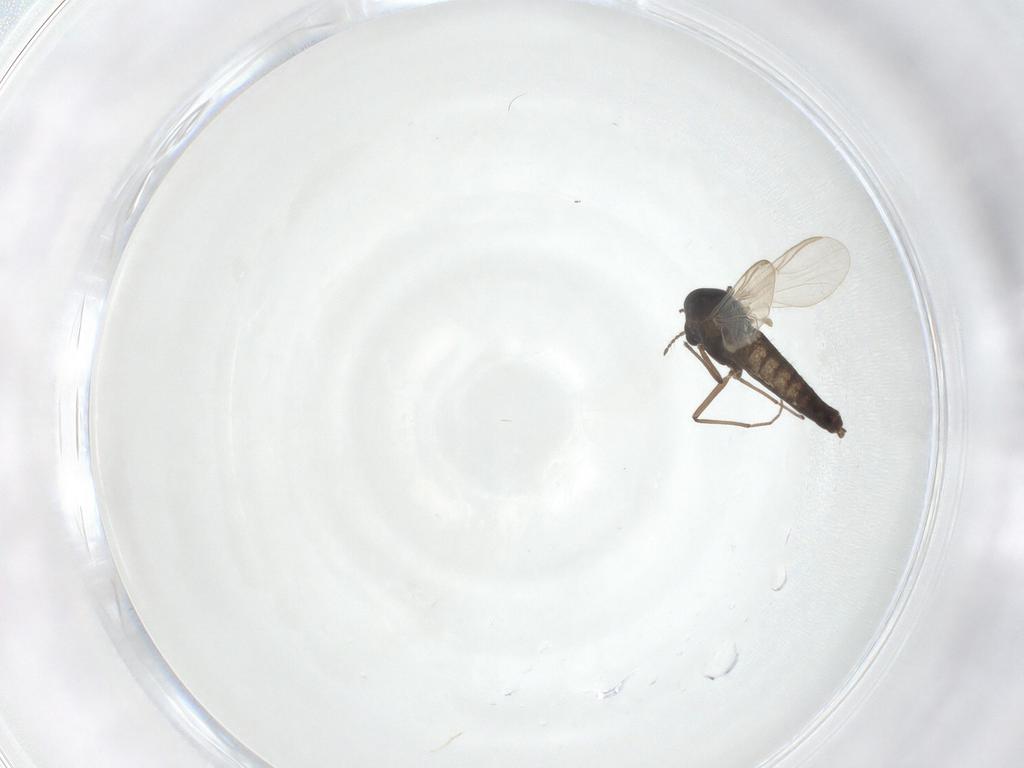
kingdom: Animalia
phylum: Arthropoda
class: Insecta
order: Diptera
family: Chironomidae
